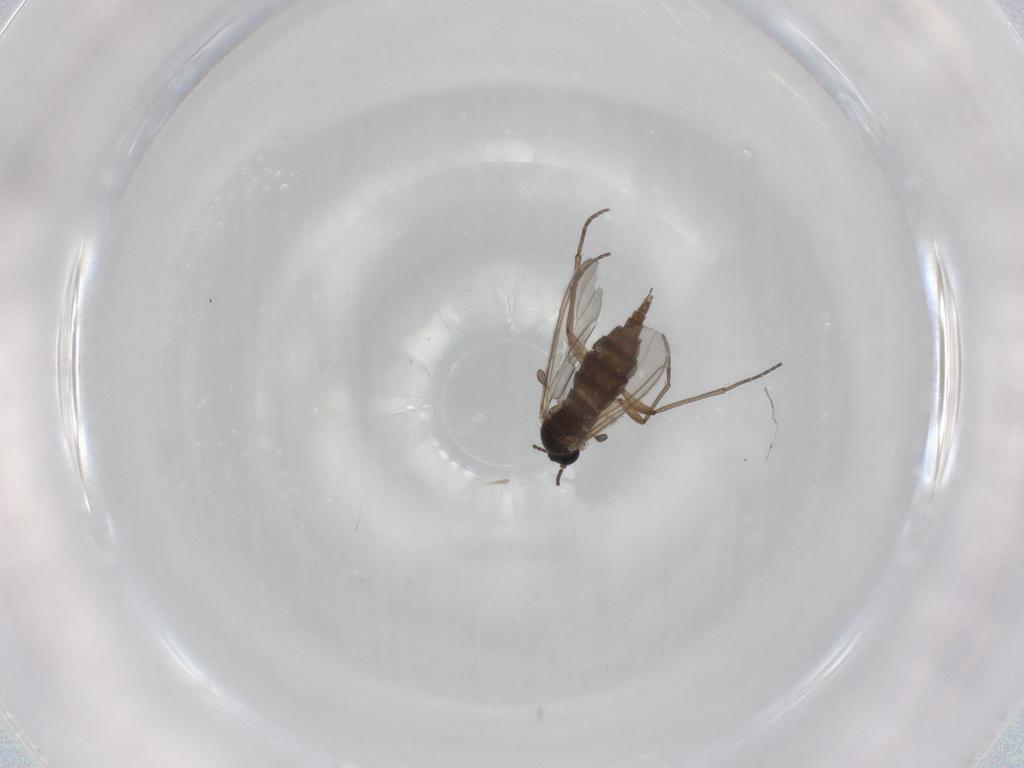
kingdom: Animalia
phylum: Arthropoda
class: Insecta
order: Diptera
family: Sciaridae
